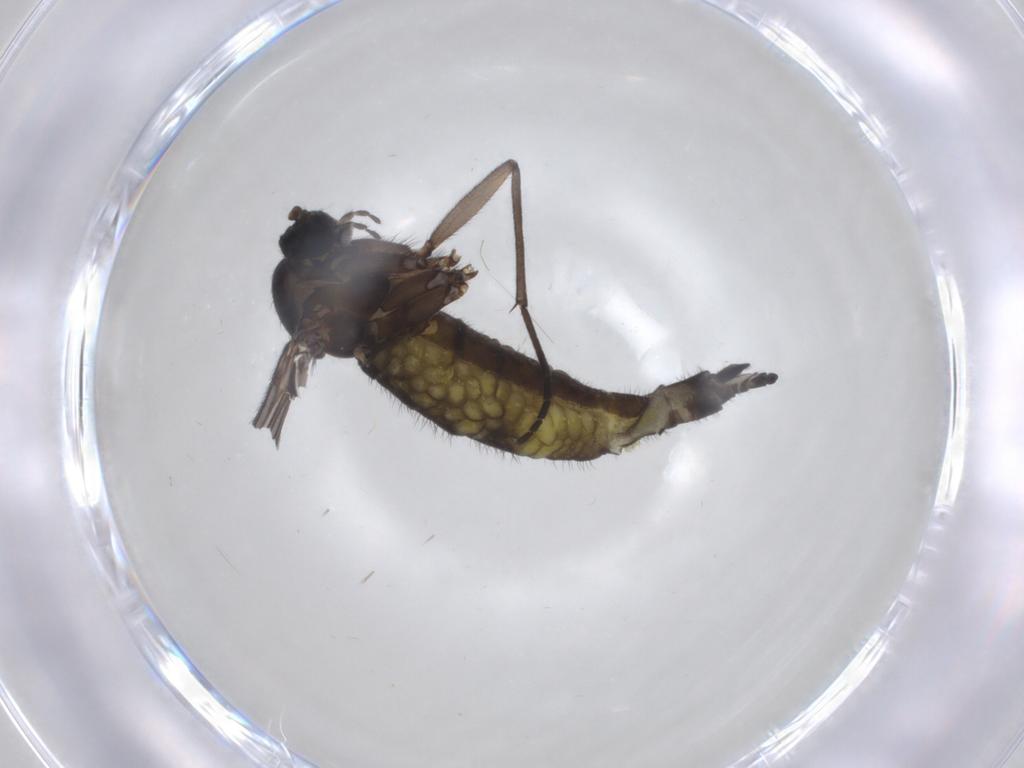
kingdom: Animalia
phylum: Arthropoda
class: Insecta
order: Diptera
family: Sciaridae
